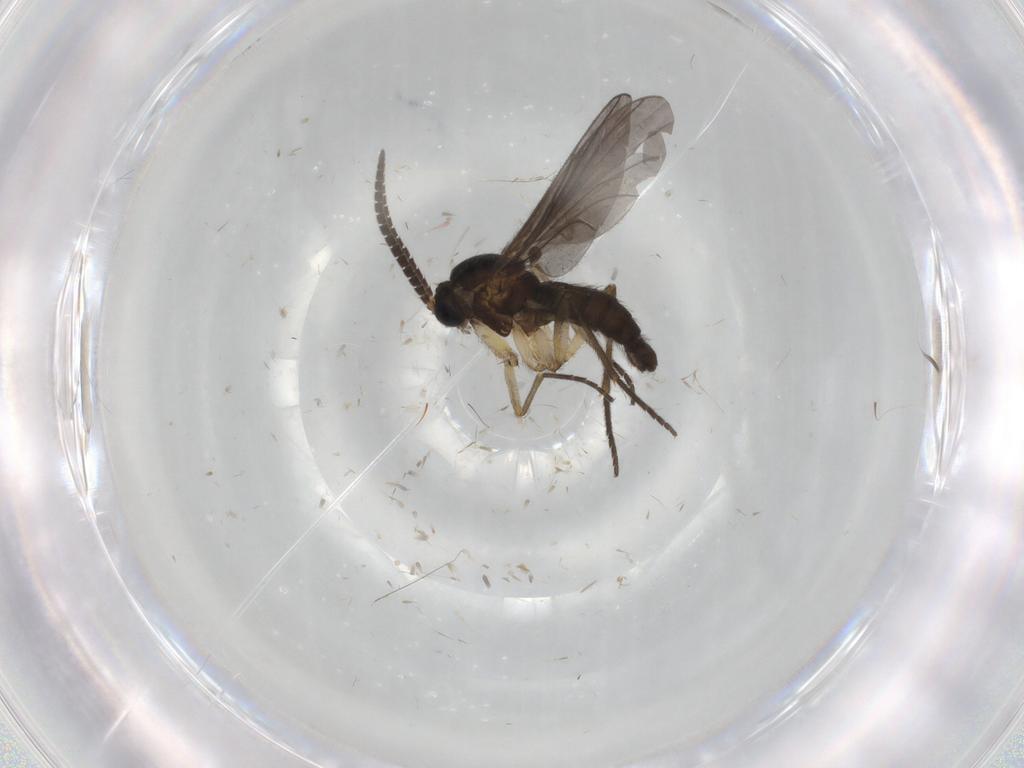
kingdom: Animalia
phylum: Arthropoda
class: Insecta
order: Diptera
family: Sciaridae
